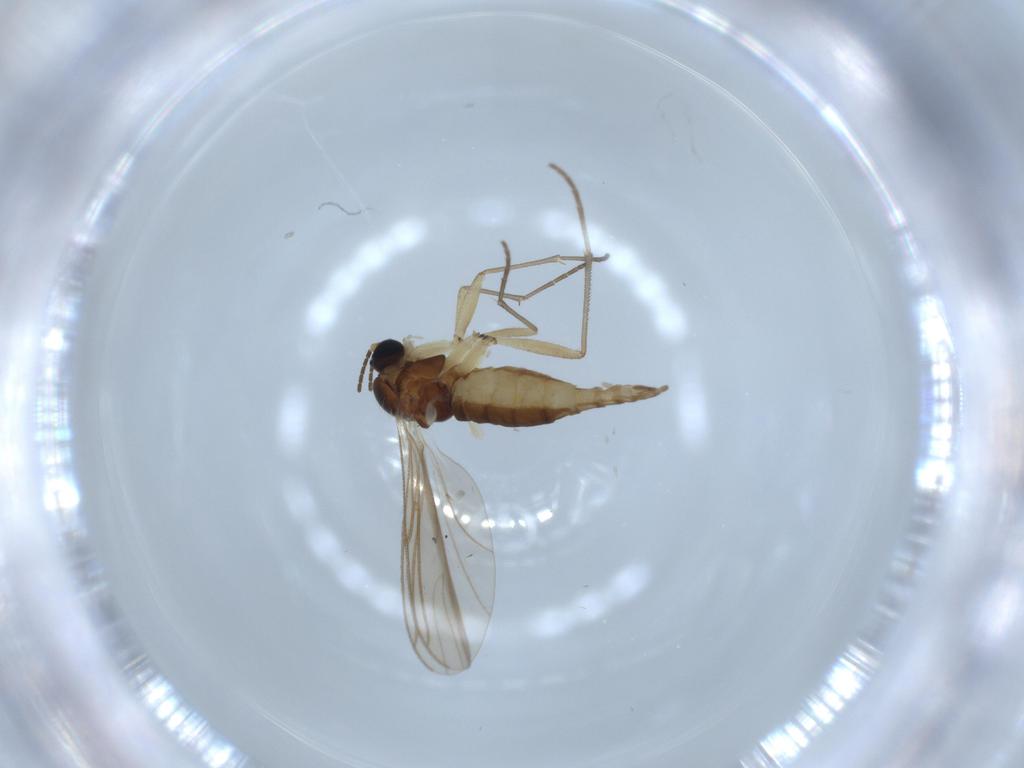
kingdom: Animalia
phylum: Arthropoda
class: Insecta
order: Diptera
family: Sciaridae
